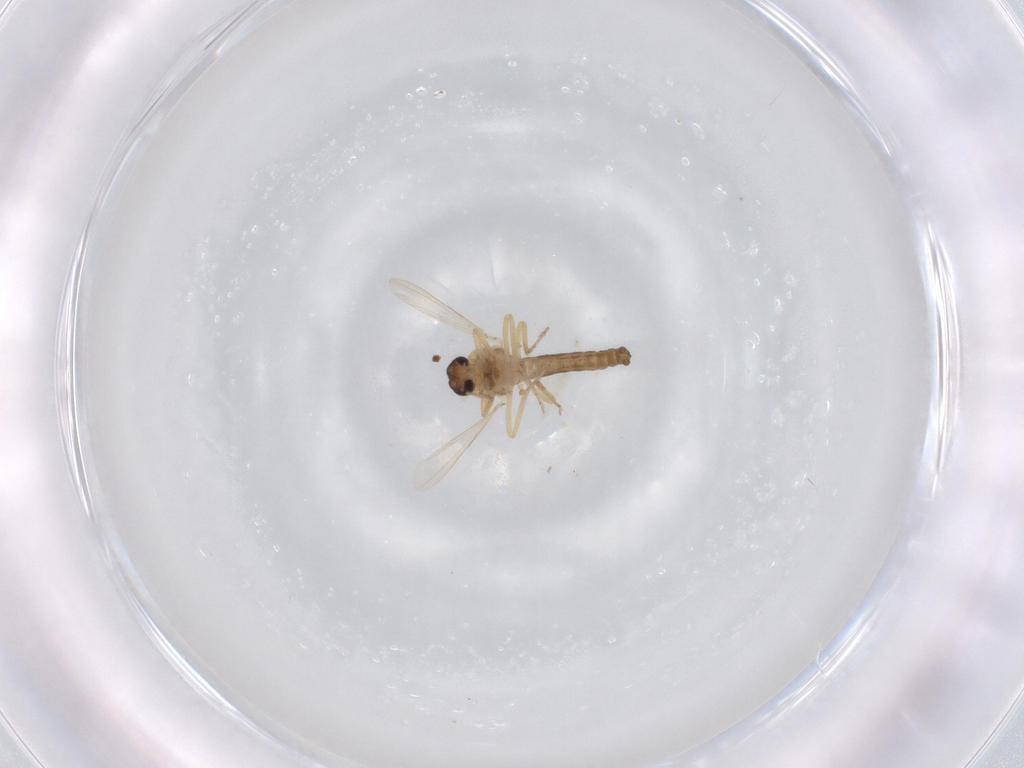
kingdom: Animalia
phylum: Arthropoda
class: Insecta
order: Diptera
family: Ceratopogonidae
